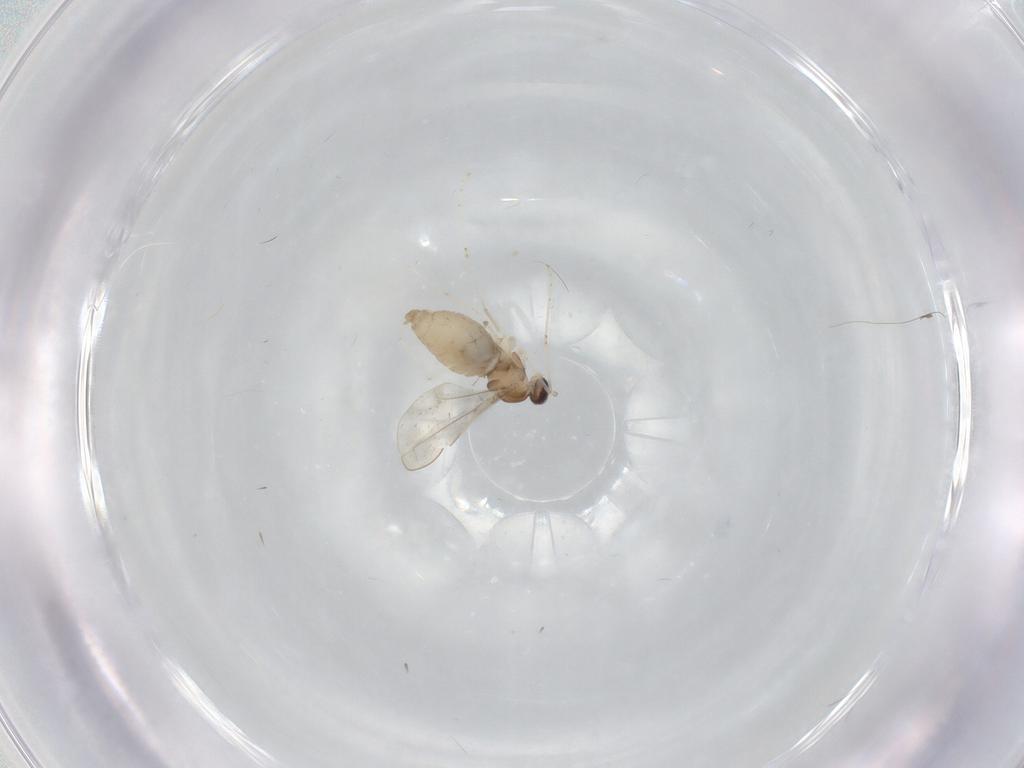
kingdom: Animalia
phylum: Arthropoda
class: Insecta
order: Diptera
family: Cecidomyiidae
